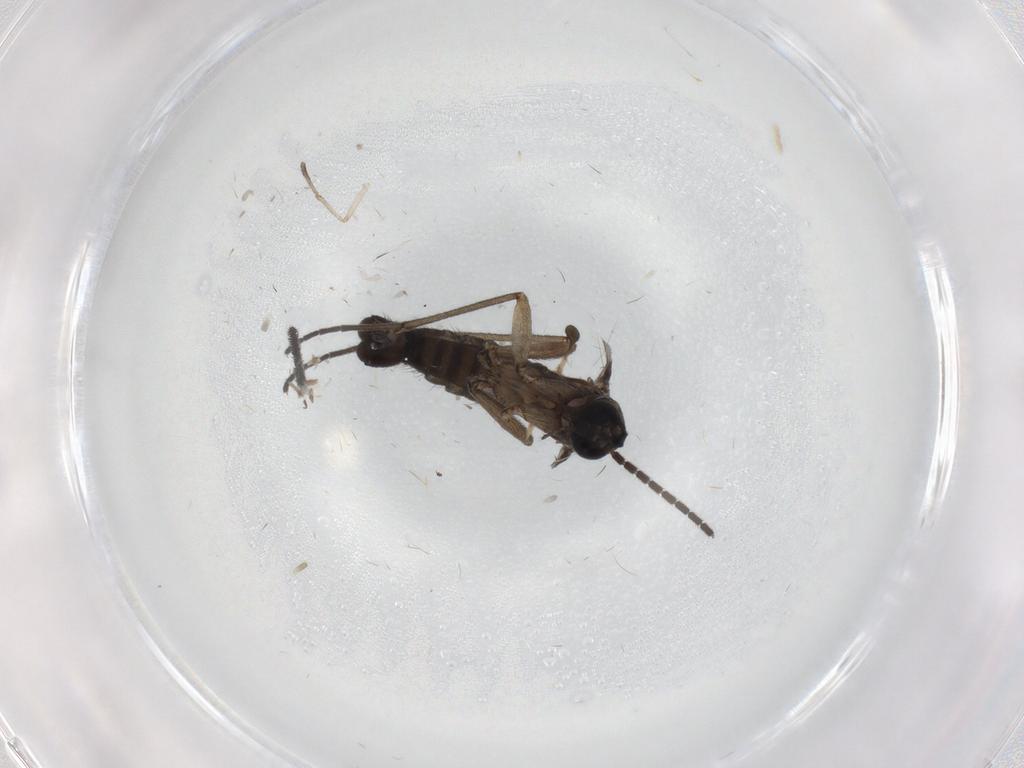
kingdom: Animalia
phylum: Arthropoda
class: Insecta
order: Diptera
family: Sciaridae
